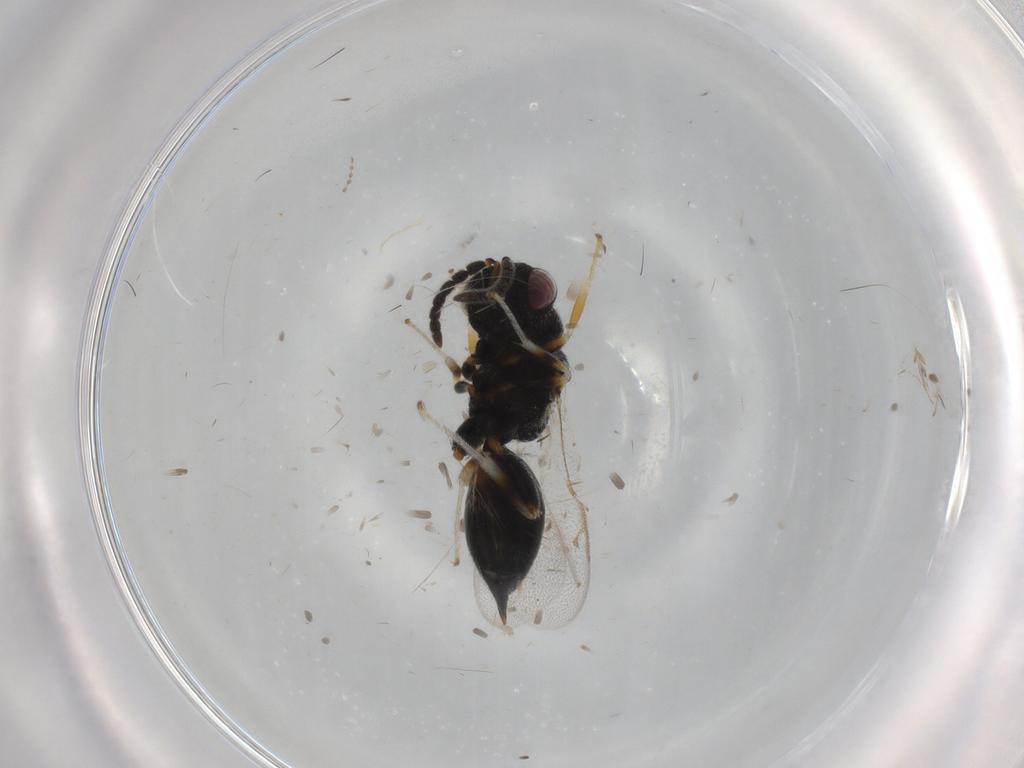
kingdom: Animalia
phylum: Arthropoda
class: Insecta
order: Hymenoptera
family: Eurytomidae
